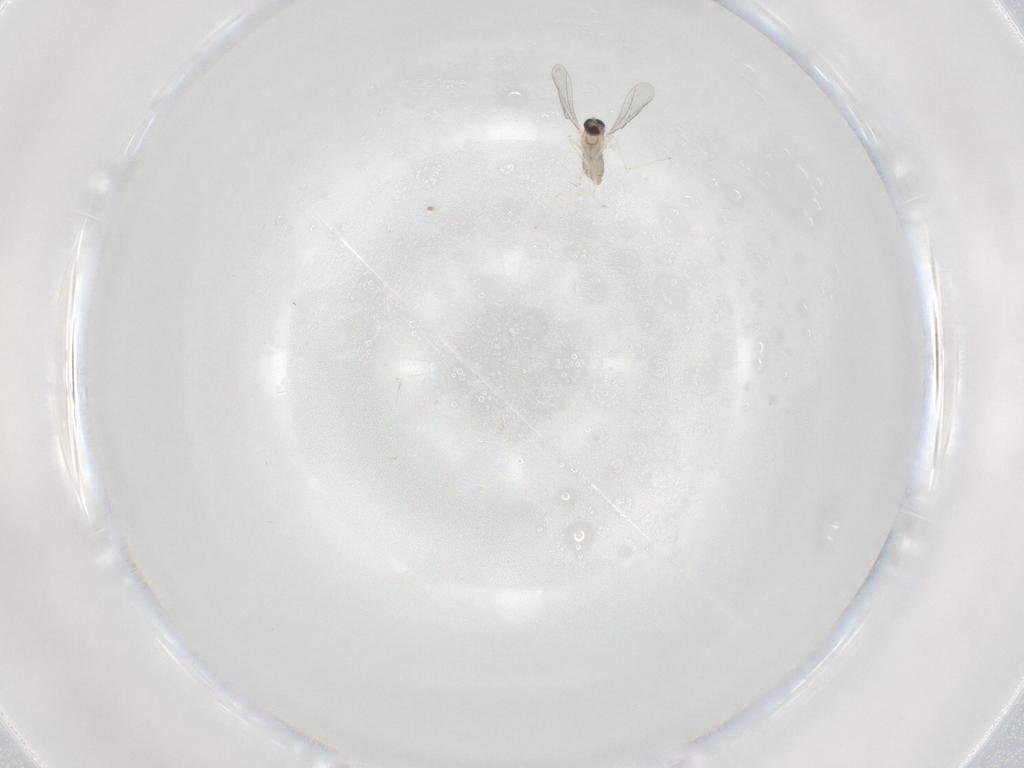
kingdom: Animalia
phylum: Arthropoda
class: Insecta
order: Diptera
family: Cecidomyiidae
